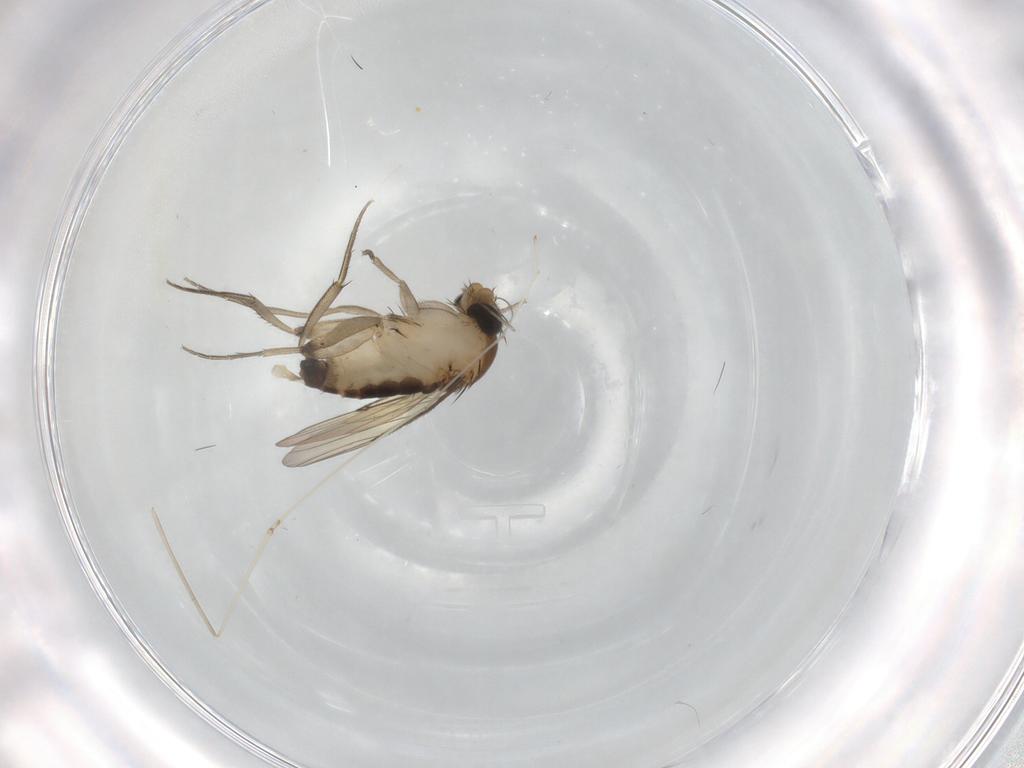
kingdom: Animalia
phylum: Arthropoda
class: Insecta
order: Diptera
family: Phoridae
